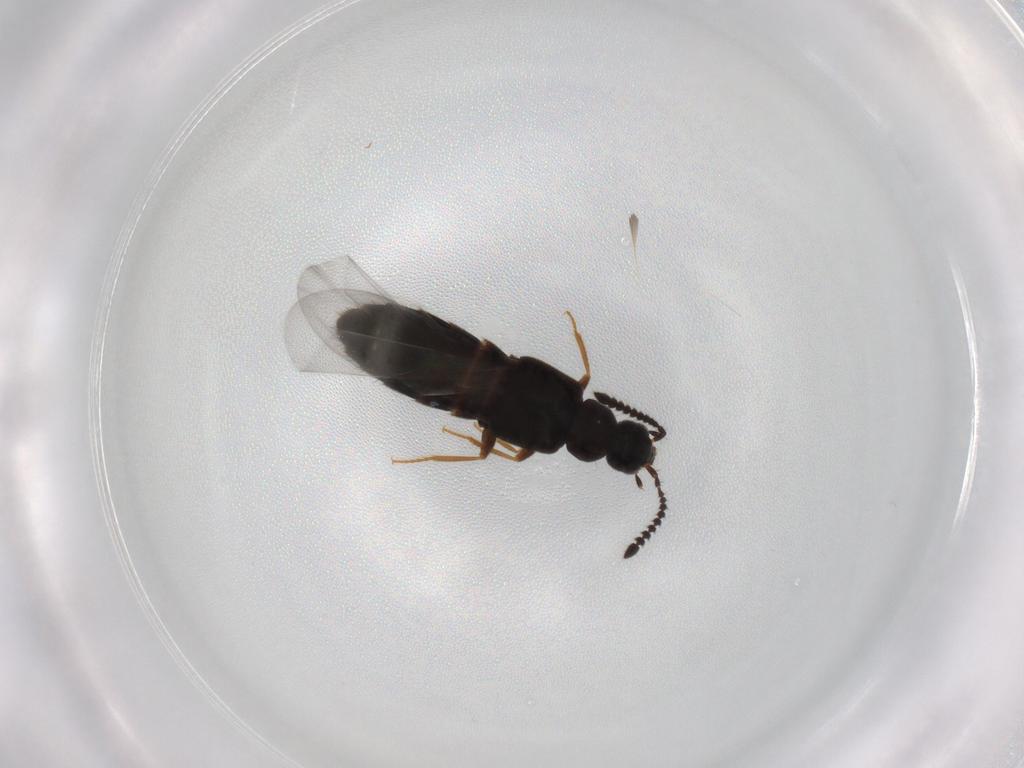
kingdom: Animalia
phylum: Arthropoda
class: Insecta
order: Coleoptera
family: Staphylinidae
